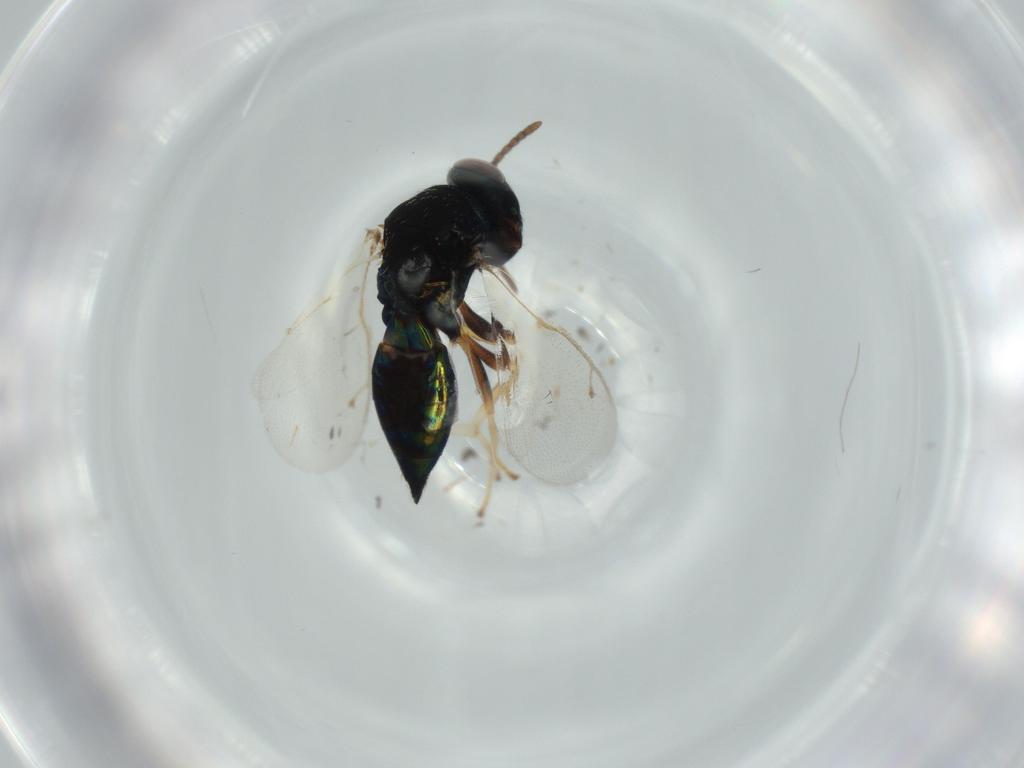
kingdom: Animalia
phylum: Arthropoda
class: Insecta
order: Hymenoptera
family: Pteromalidae
